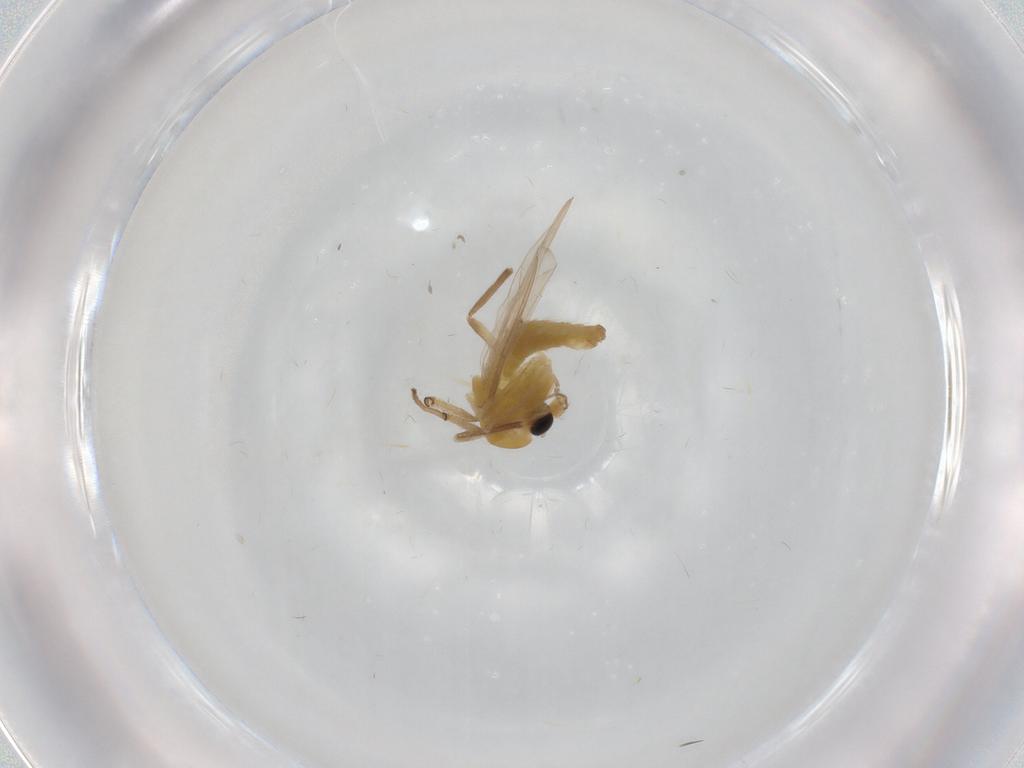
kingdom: Animalia
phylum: Arthropoda
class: Insecta
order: Diptera
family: Chironomidae
